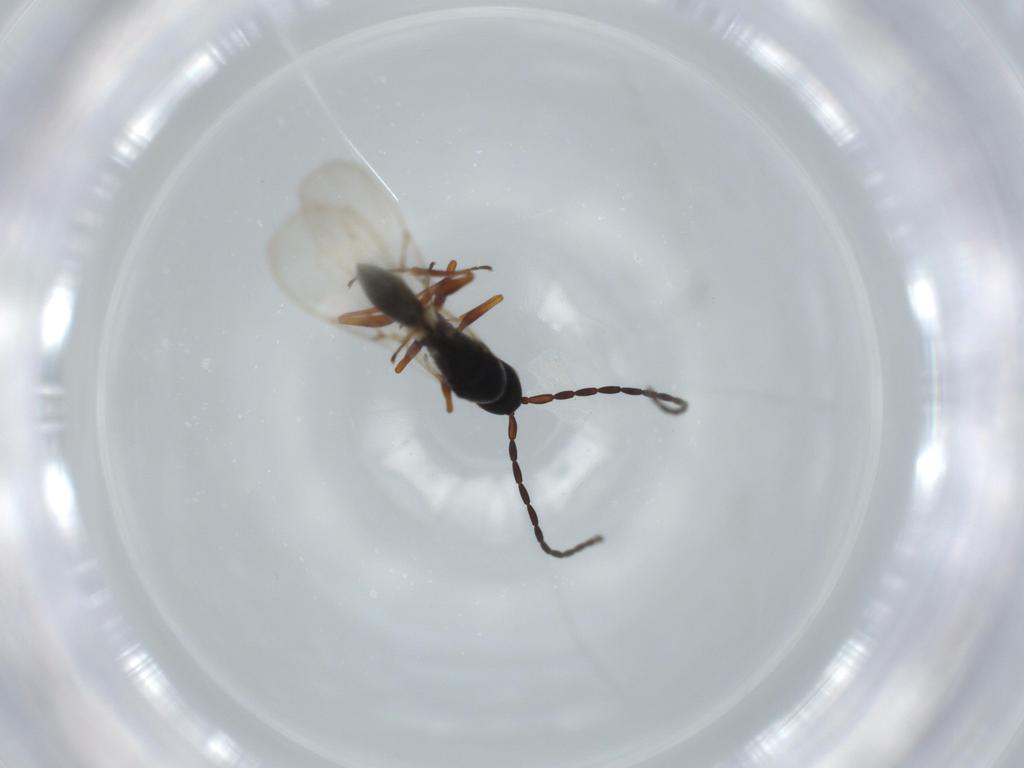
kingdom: Animalia
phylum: Arthropoda
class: Insecta
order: Hymenoptera
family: Figitidae
